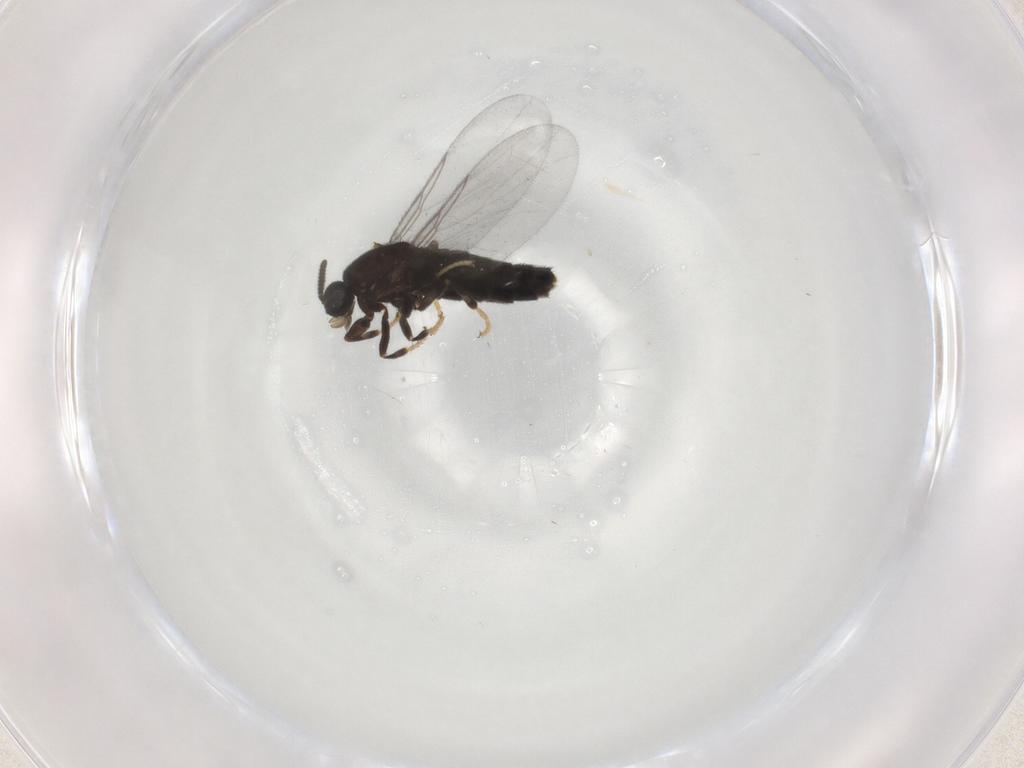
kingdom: Animalia
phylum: Arthropoda
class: Insecta
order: Diptera
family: Scatopsidae
